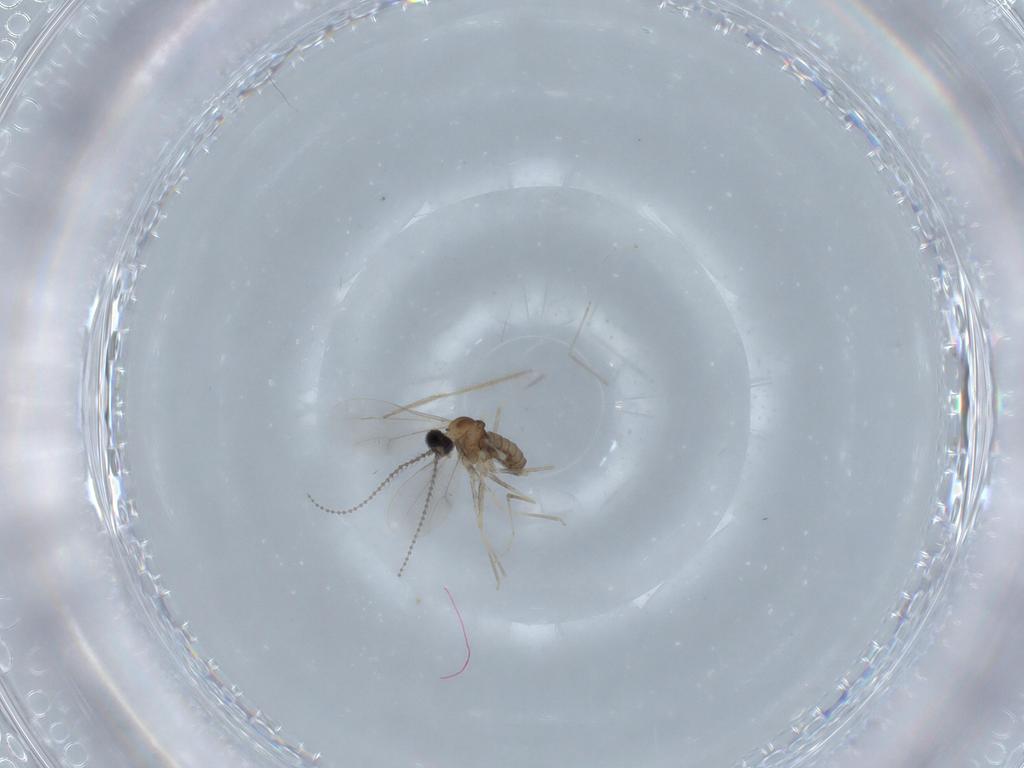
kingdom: Animalia
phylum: Arthropoda
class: Insecta
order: Diptera
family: Chironomidae
